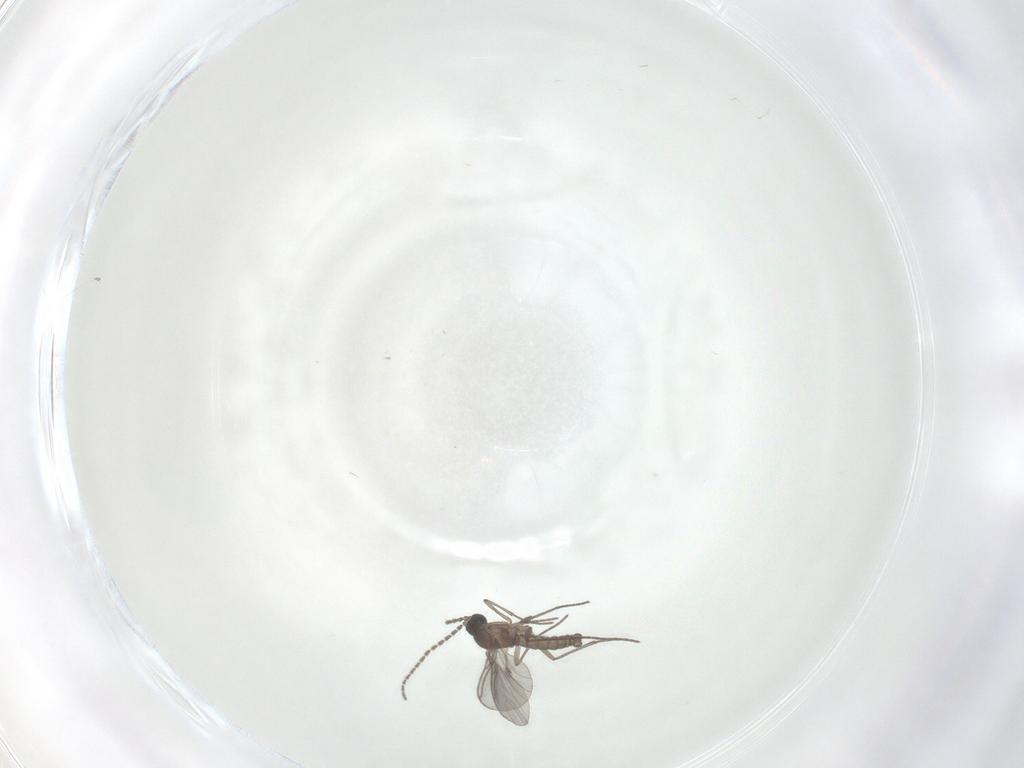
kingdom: Animalia
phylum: Arthropoda
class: Insecta
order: Diptera
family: Sciaridae
